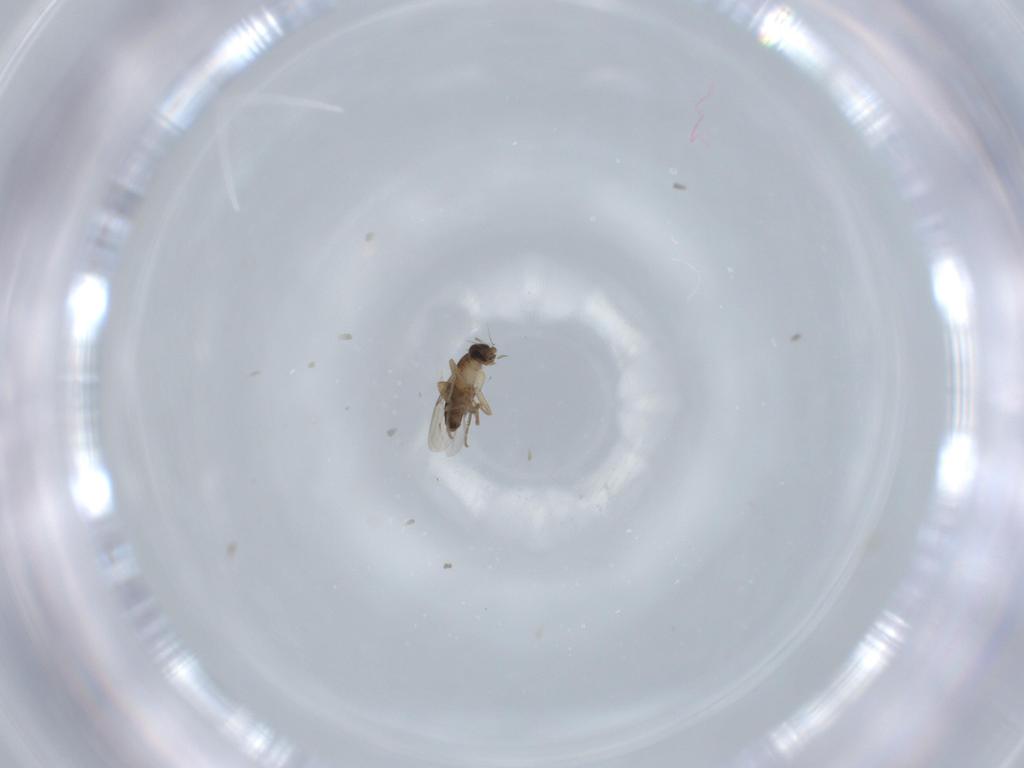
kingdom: Animalia
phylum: Arthropoda
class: Insecta
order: Diptera
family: Phoridae
